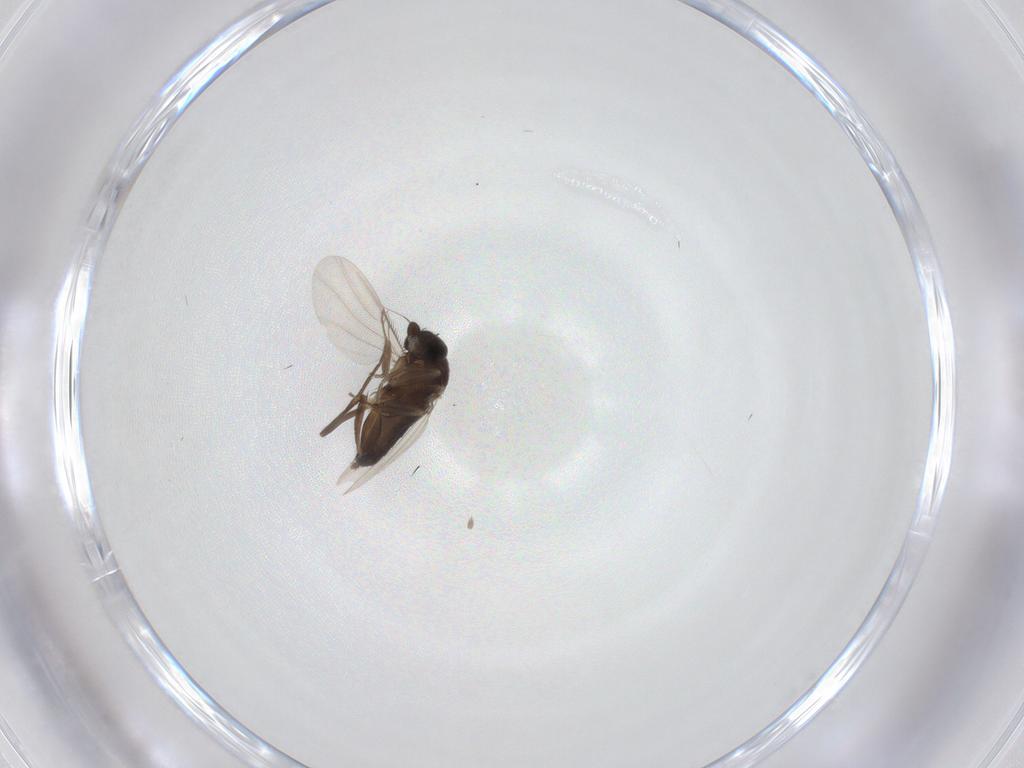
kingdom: Animalia
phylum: Arthropoda
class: Insecta
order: Diptera
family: Phoridae
